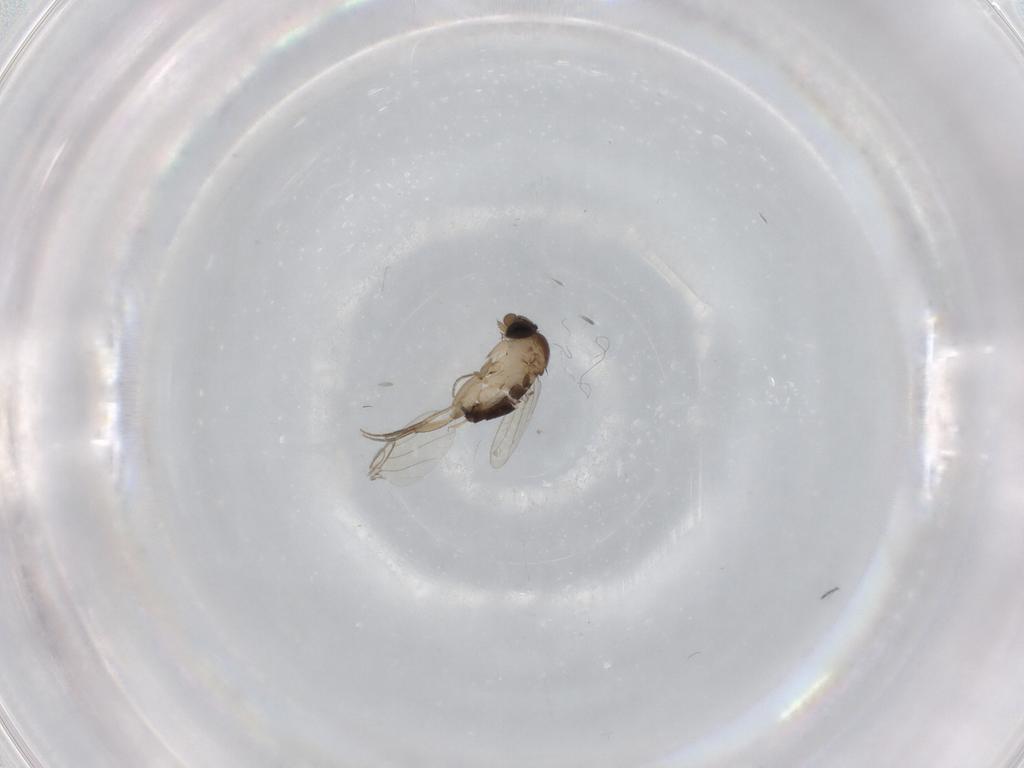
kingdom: Animalia
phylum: Arthropoda
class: Insecta
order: Diptera
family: Phoridae
